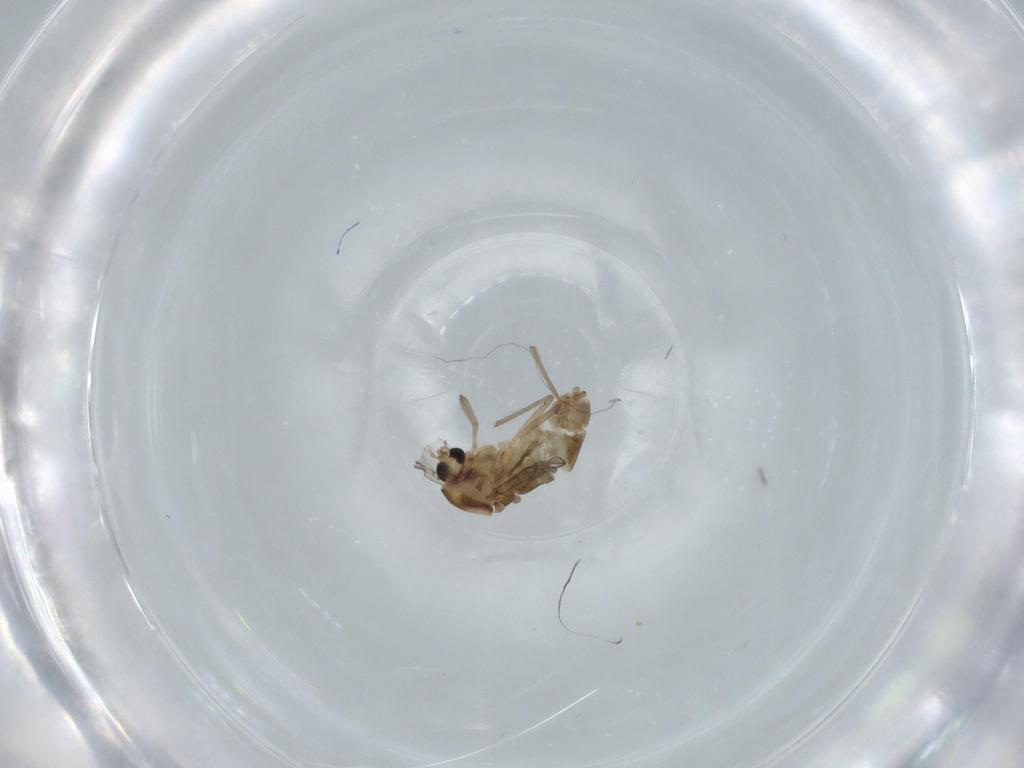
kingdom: Animalia
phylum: Arthropoda
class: Insecta
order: Diptera
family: Chironomidae
